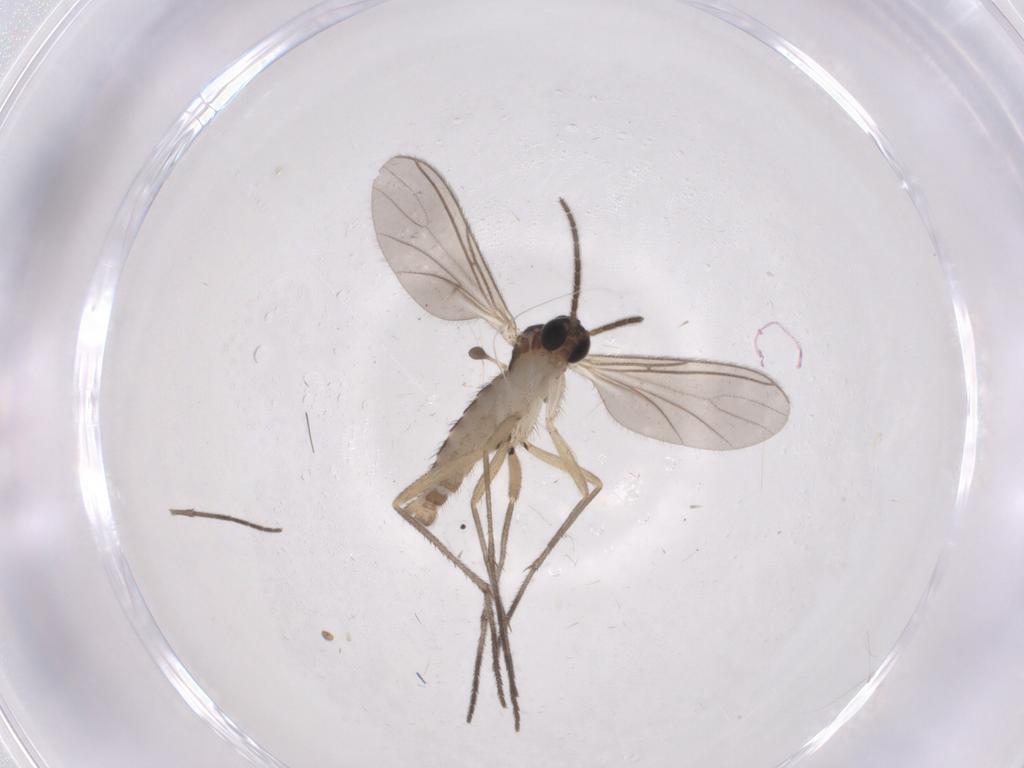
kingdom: Animalia
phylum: Arthropoda
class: Insecta
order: Diptera
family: Sciaridae
